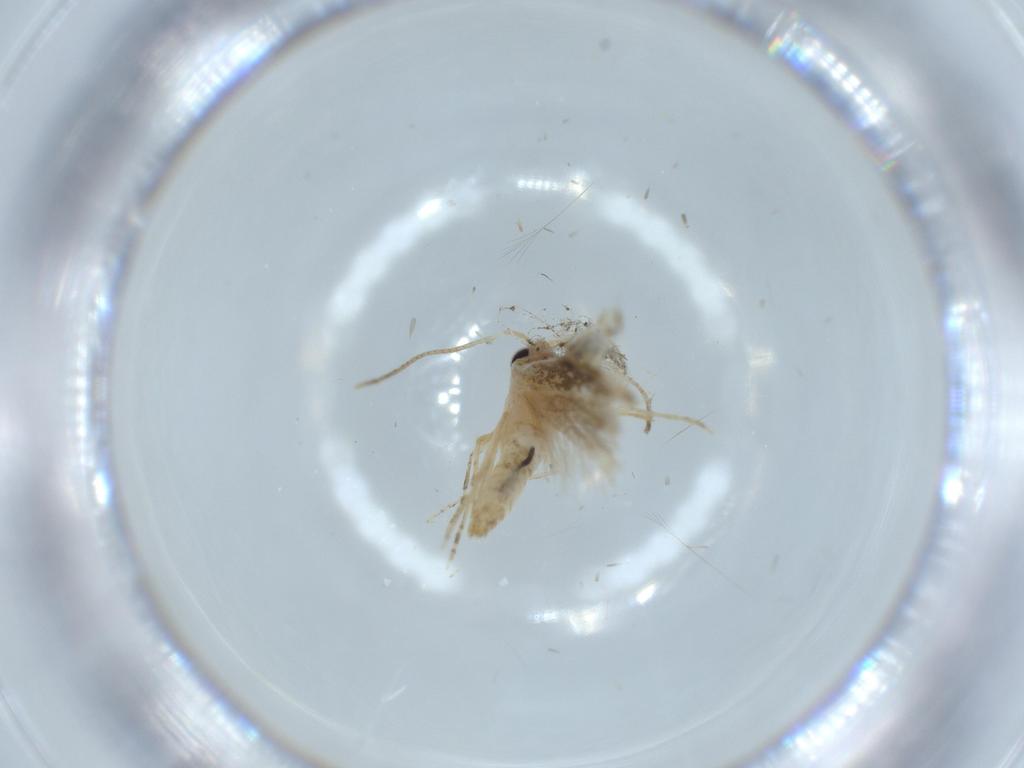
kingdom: Animalia
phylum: Arthropoda
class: Insecta
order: Lepidoptera
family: Bucculatricidae
